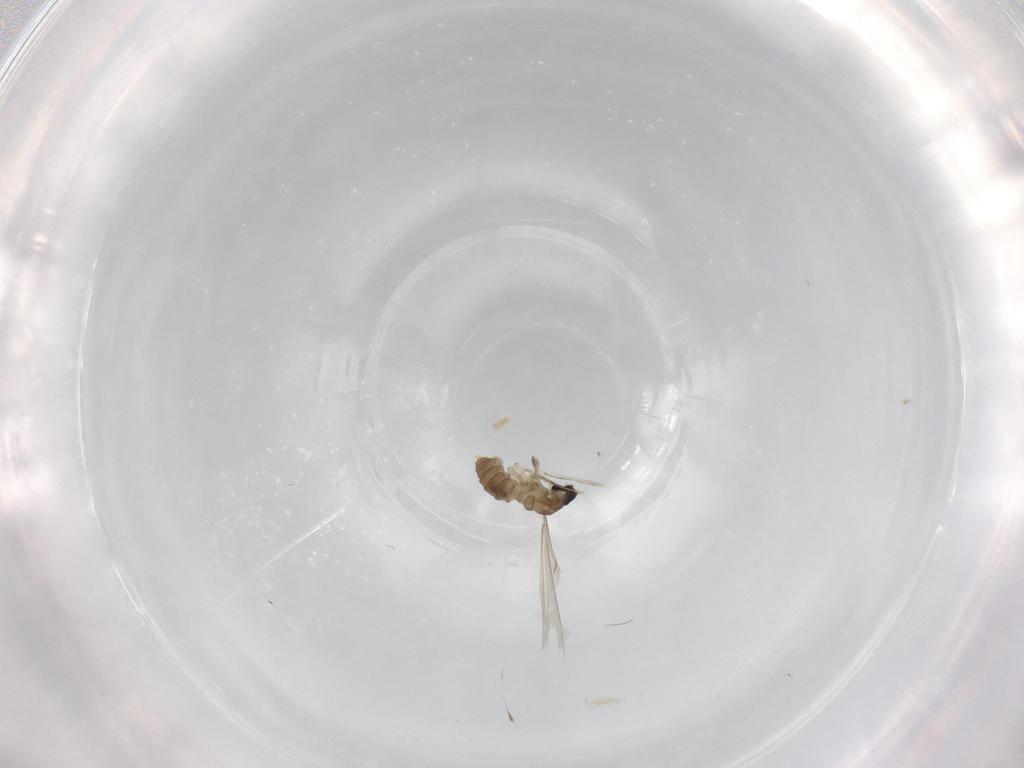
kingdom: Animalia
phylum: Arthropoda
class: Insecta
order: Diptera
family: Cecidomyiidae
